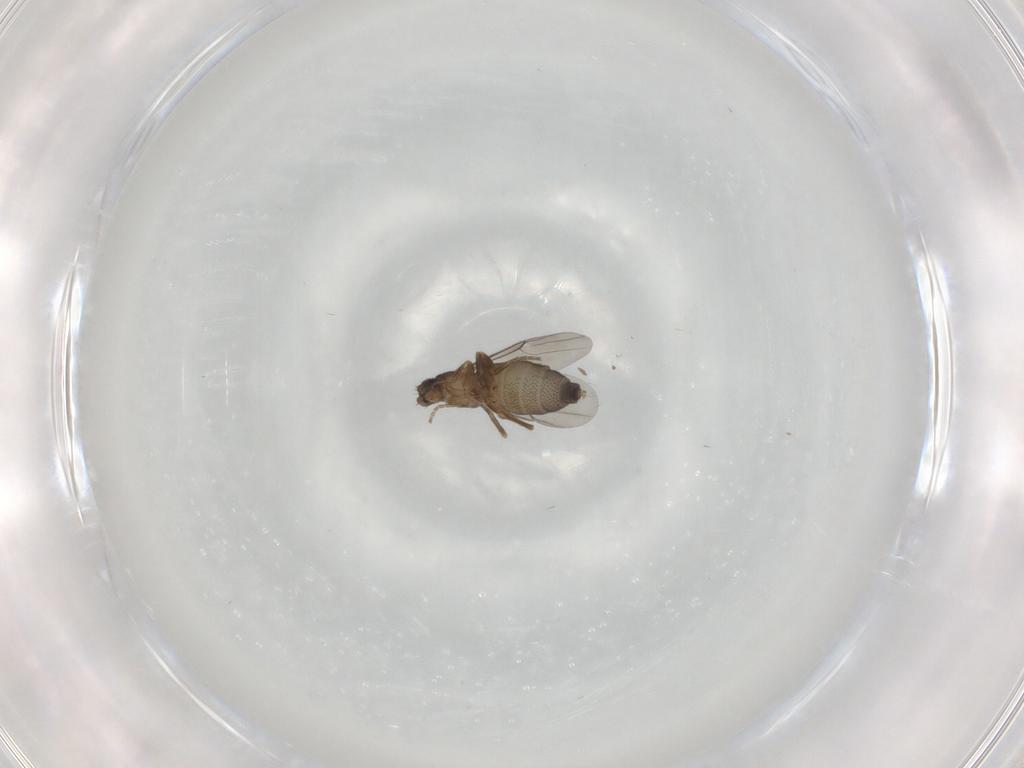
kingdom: Animalia
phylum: Arthropoda
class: Insecta
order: Diptera
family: Phoridae
